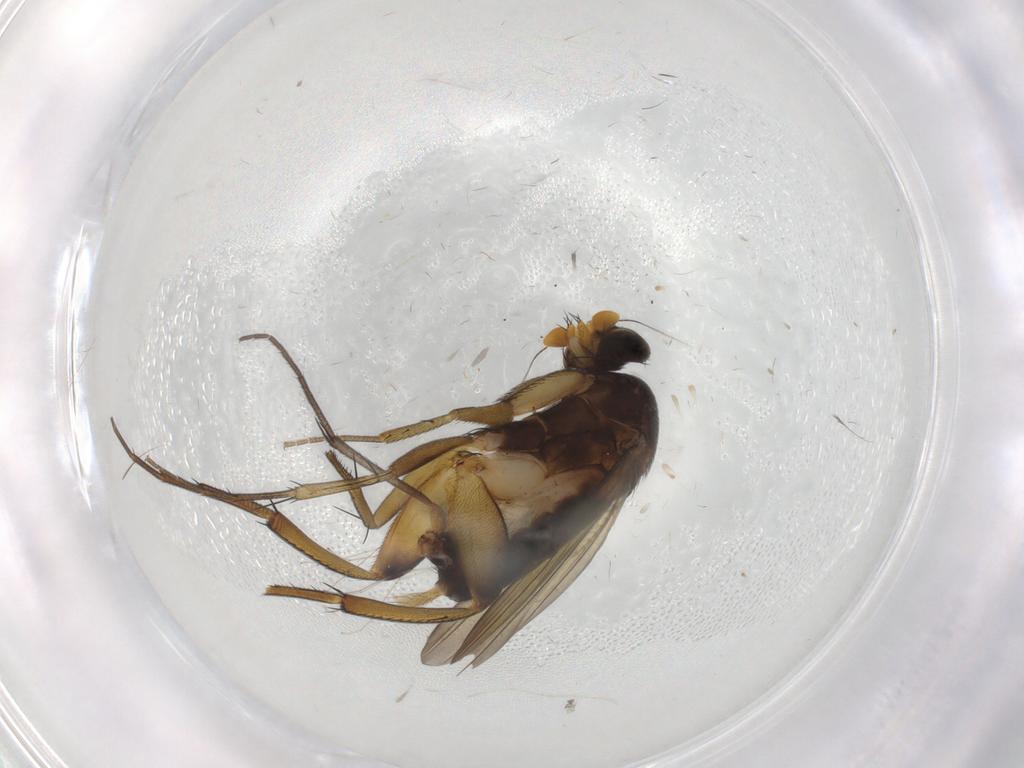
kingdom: Animalia
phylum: Arthropoda
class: Insecta
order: Diptera
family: Phoridae
